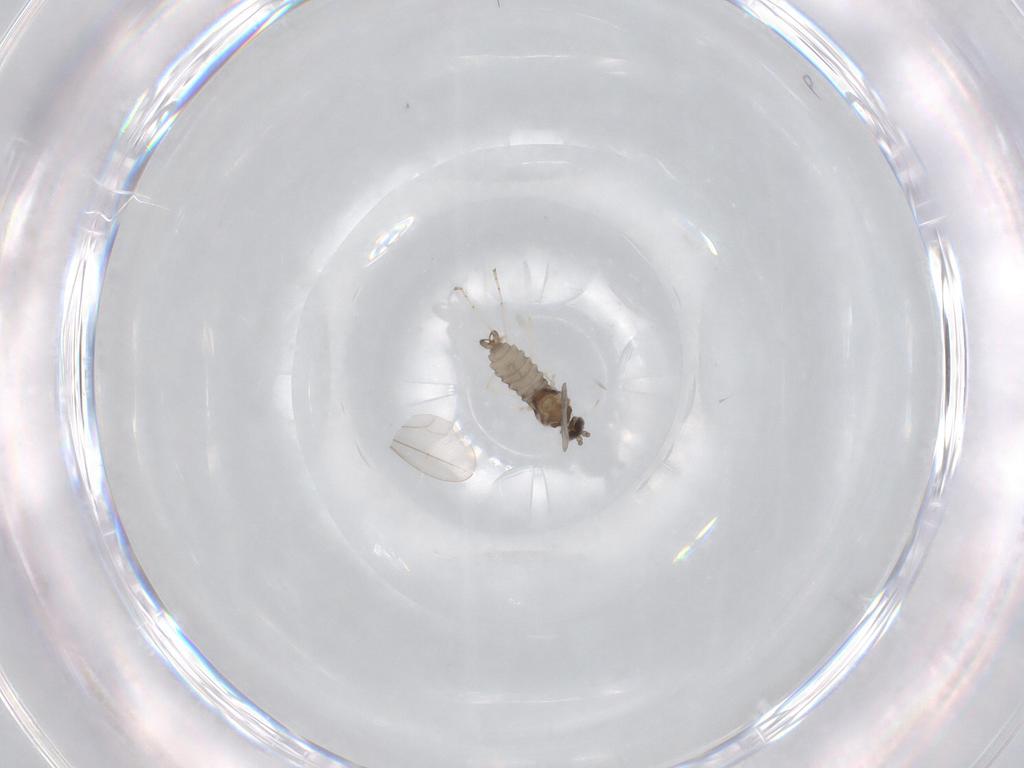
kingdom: Animalia
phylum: Arthropoda
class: Insecta
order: Diptera
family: Cecidomyiidae
